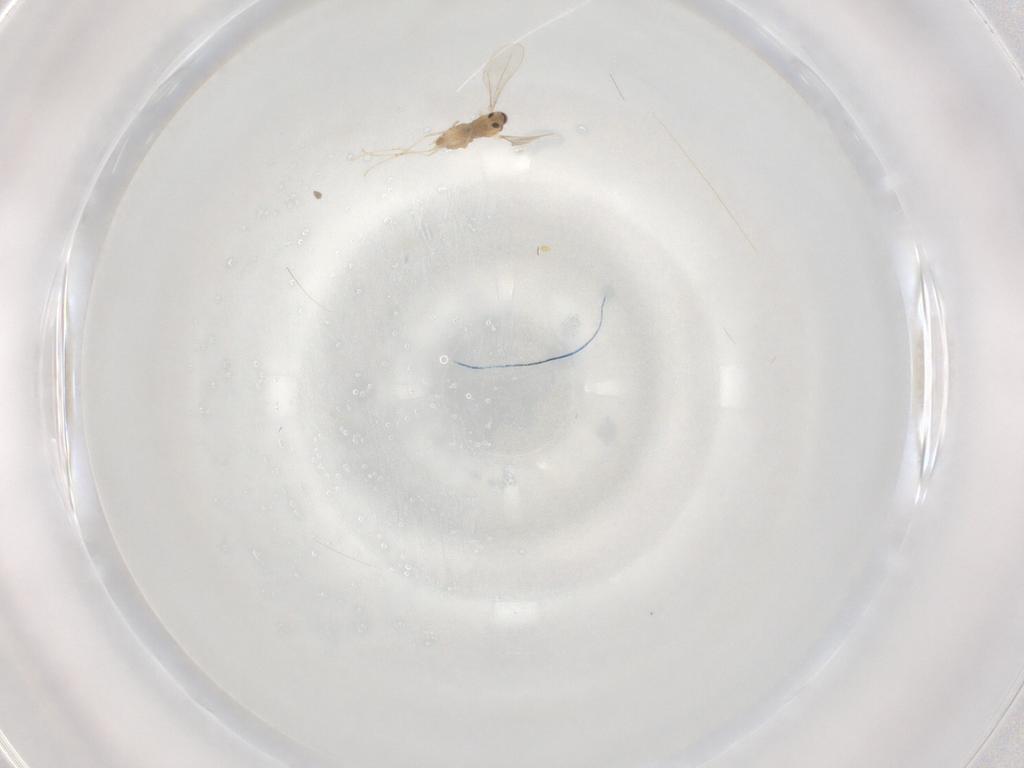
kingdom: Animalia
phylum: Arthropoda
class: Insecta
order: Diptera
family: Cecidomyiidae
